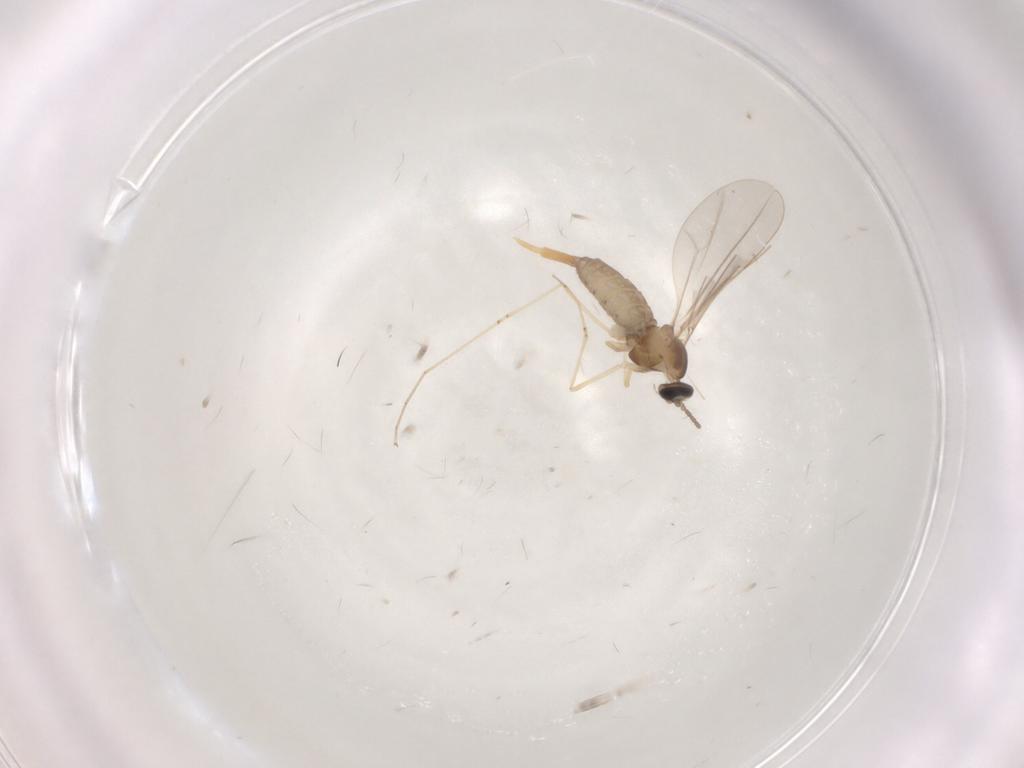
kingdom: Animalia
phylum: Arthropoda
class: Insecta
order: Diptera
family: Cecidomyiidae
